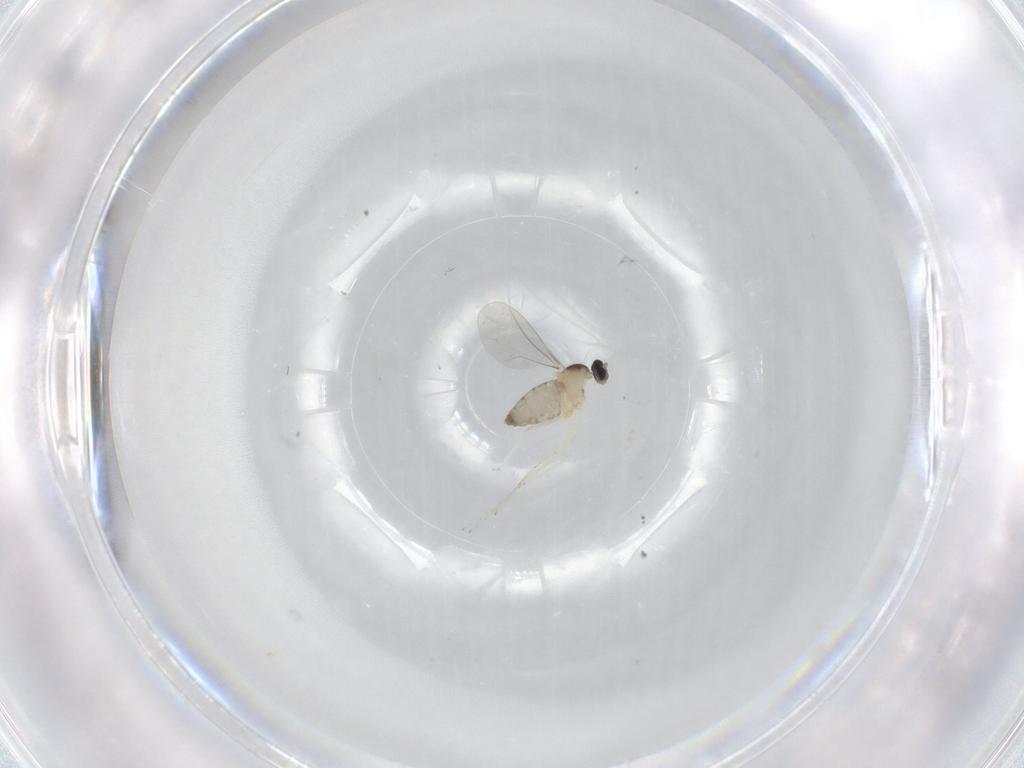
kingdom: Animalia
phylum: Arthropoda
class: Insecta
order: Diptera
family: Cecidomyiidae
